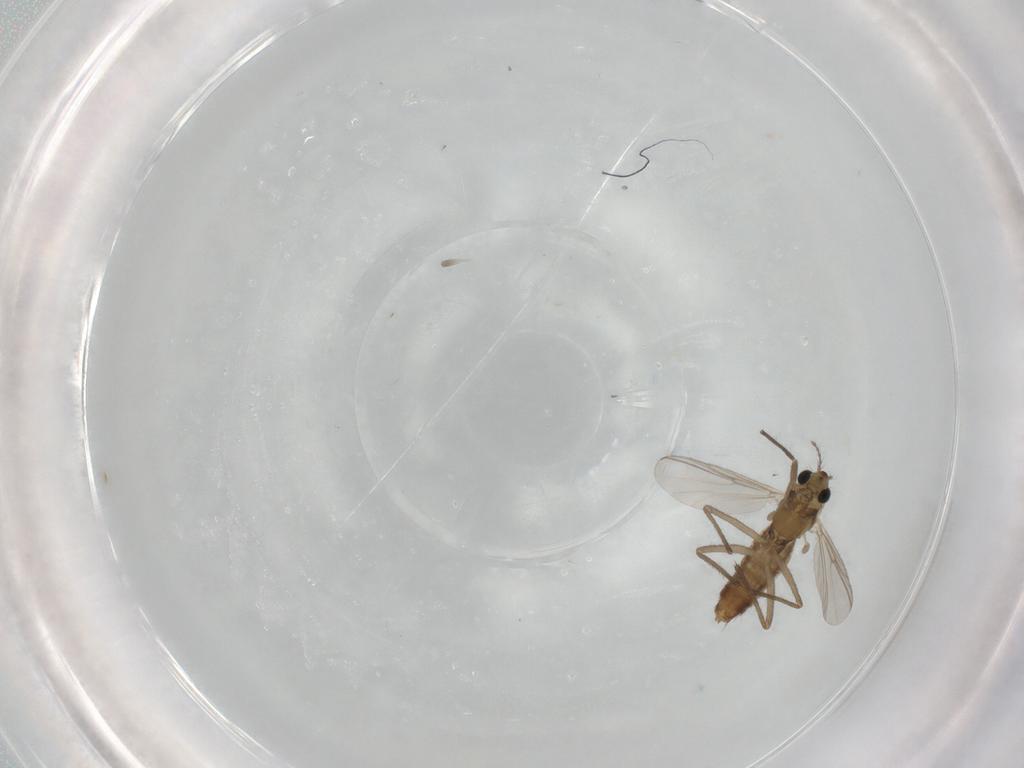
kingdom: Animalia
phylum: Arthropoda
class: Insecta
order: Diptera
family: Chironomidae
